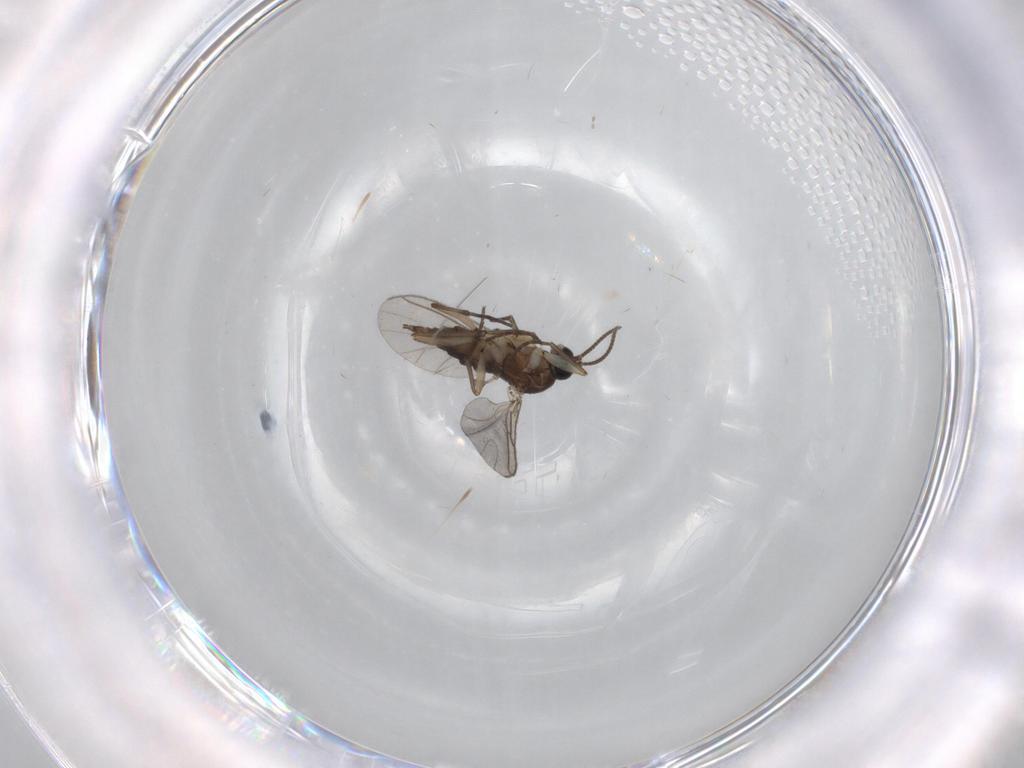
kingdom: Animalia
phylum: Arthropoda
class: Insecta
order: Diptera
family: Sciaridae
